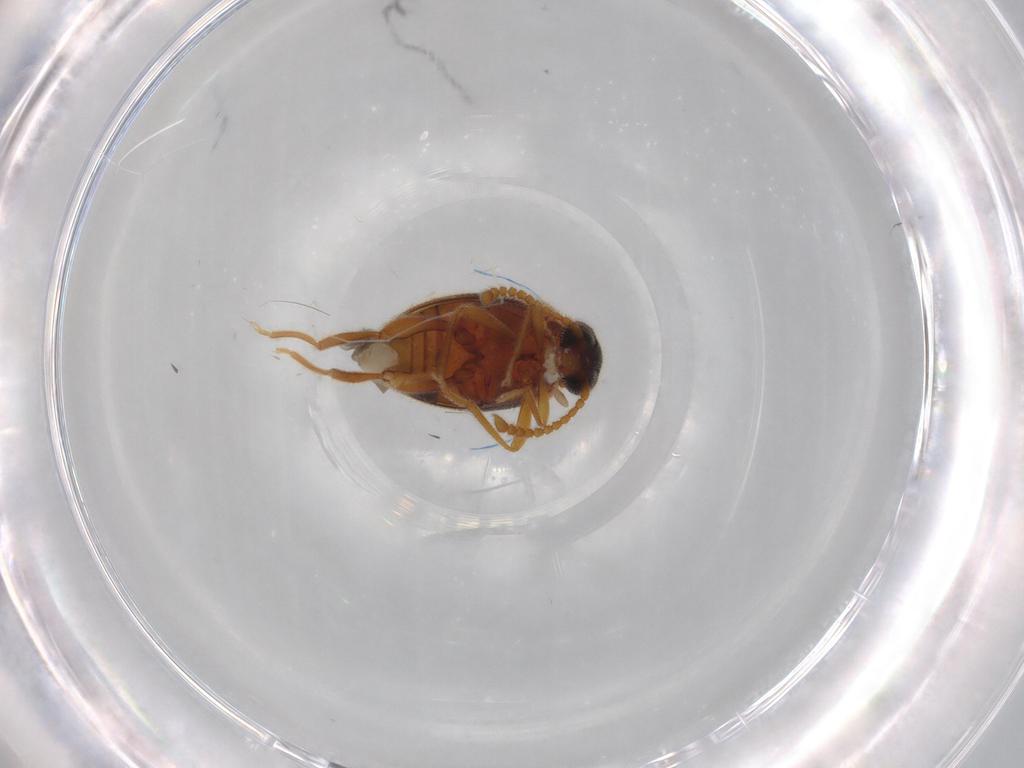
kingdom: Animalia
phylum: Arthropoda
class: Insecta
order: Coleoptera
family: Aderidae
